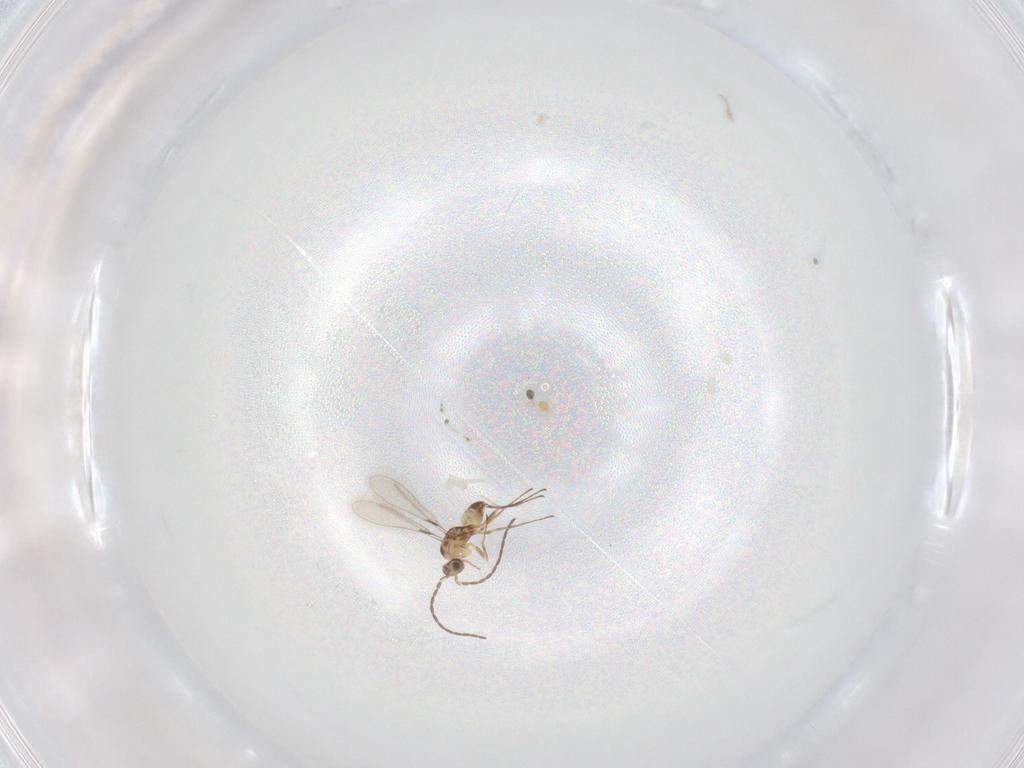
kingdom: Animalia
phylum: Arthropoda
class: Insecta
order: Hymenoptera
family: Mymaridae
